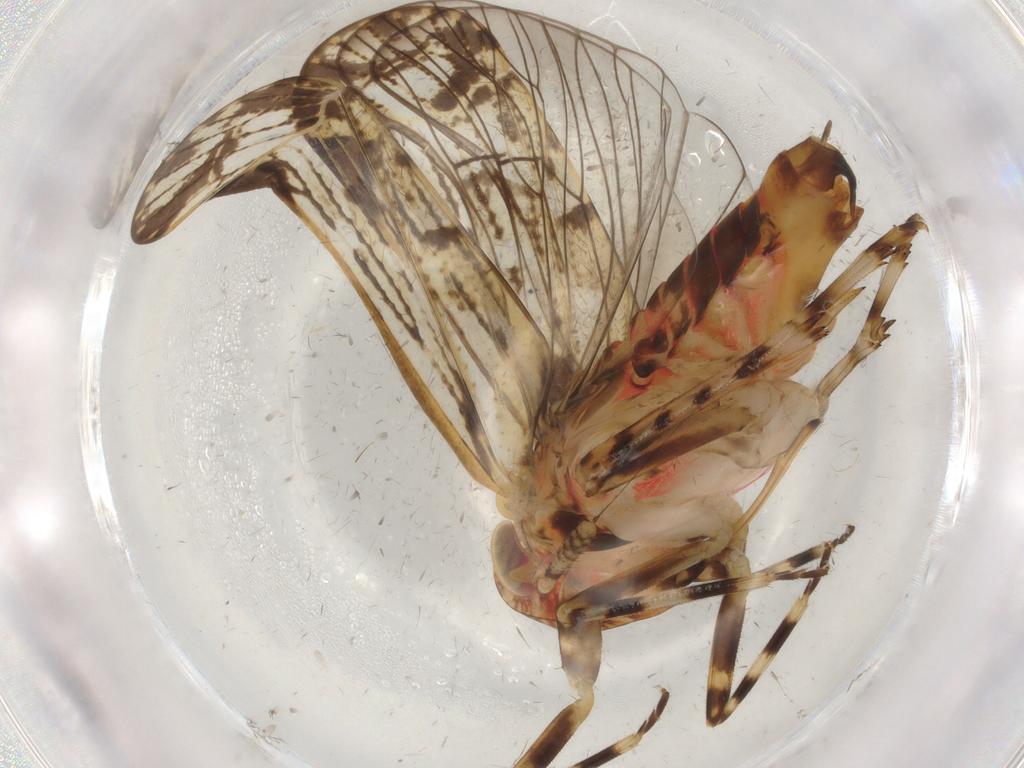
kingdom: Animalia
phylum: Arthropoda
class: Insecta
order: Hemiptera
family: Cicadellidae
